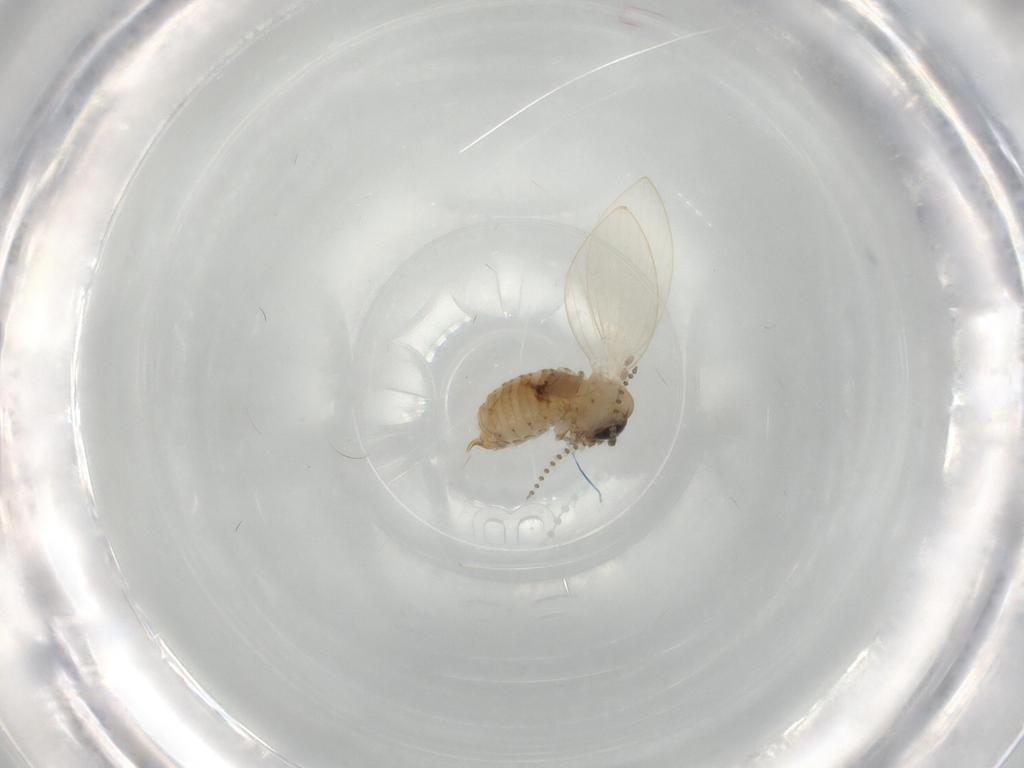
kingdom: Animalia
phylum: Arthropoda
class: Insecta
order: Diptera
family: Psychodidae
